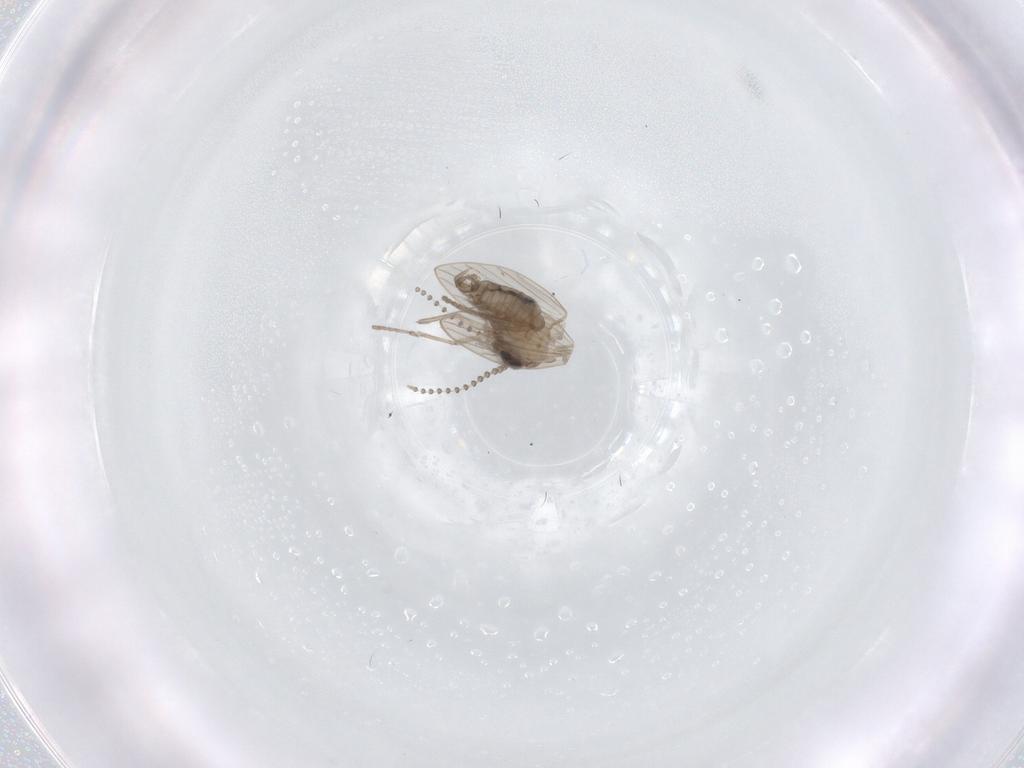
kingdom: Animalia
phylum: Arthropoda
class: Insecta
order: Diptera
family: Psychodidae
